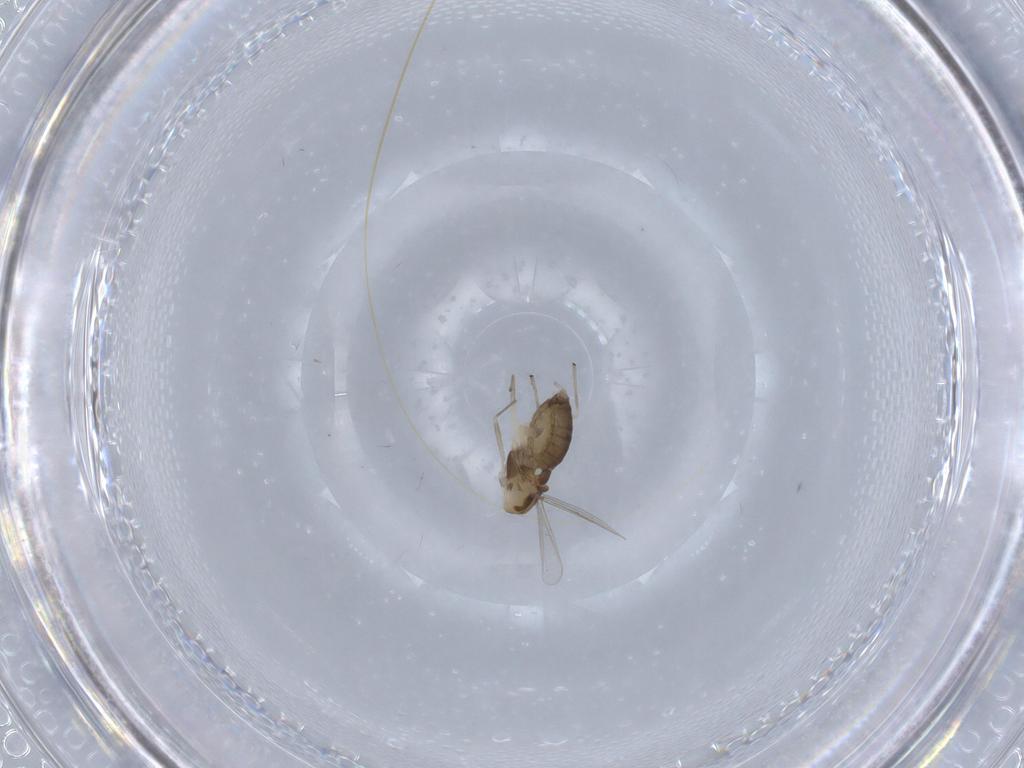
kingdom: Animalia
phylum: Arthropoda
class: Insecta
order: Diptera
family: Chironomidae
